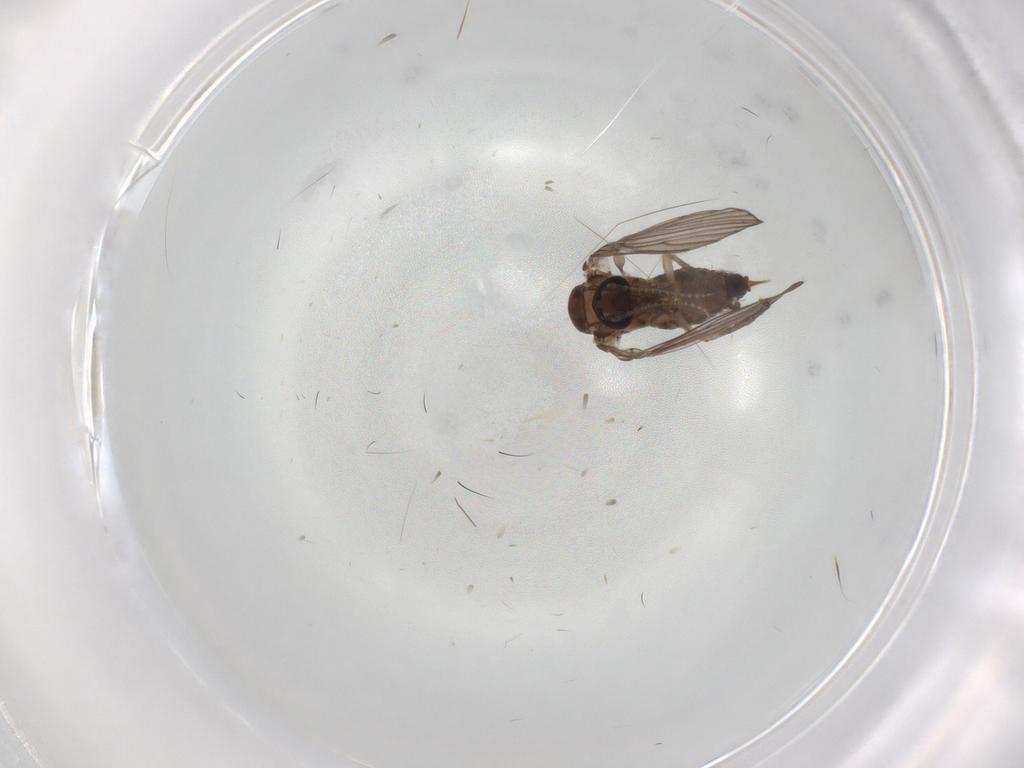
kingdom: Animalia
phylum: Arthropoda
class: Insecta
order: Diptera
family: Psychodidae
